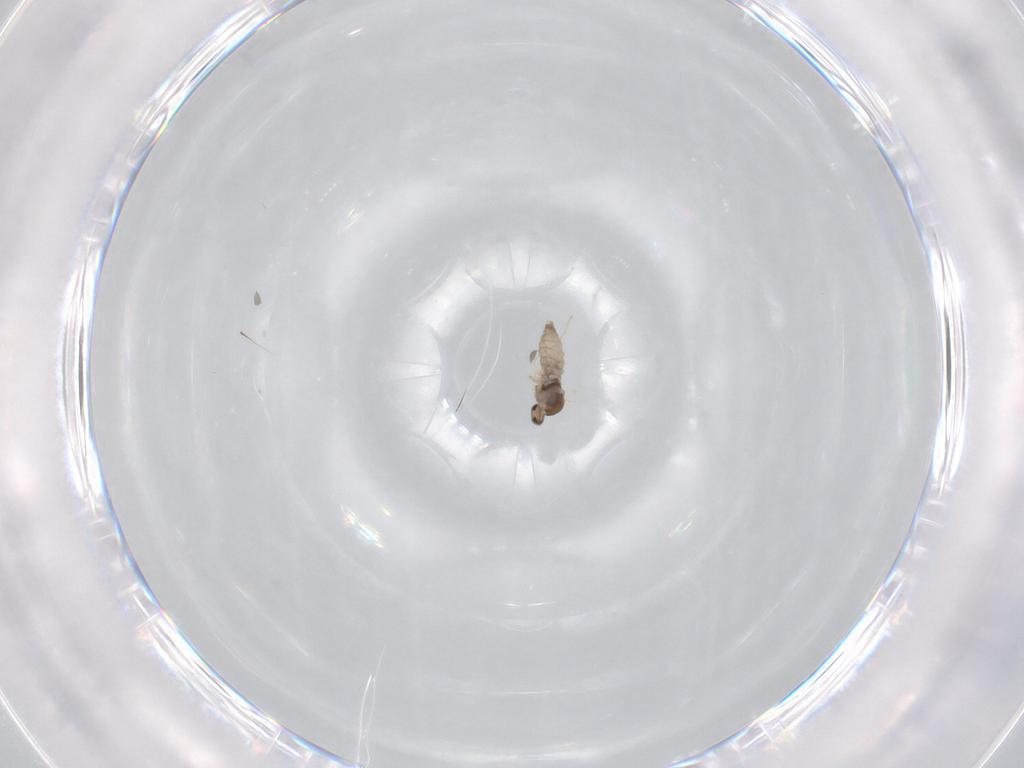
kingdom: Animalia
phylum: Arthropoda
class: Insecta
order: Diptera
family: Cecidomyiidae
